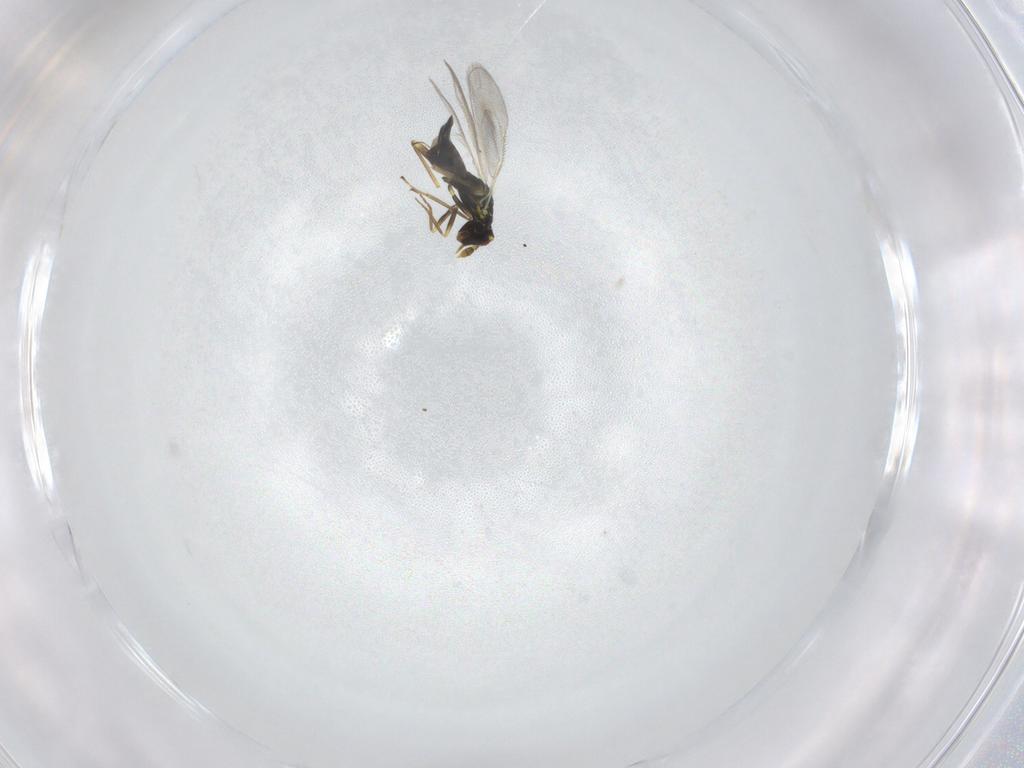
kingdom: Animalia
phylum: Arthropoda
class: Insecta
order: Hymenoptera
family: Eulophidae
